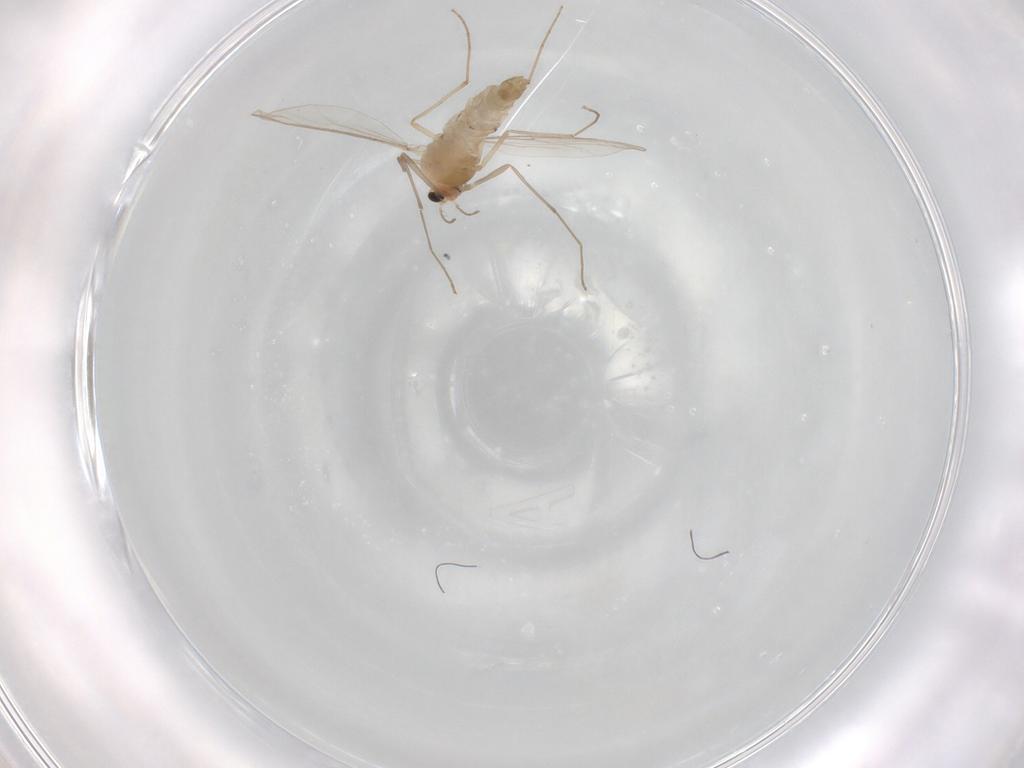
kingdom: Animalia
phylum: Arthropoda
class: Insecta
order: Diptera
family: Chironomidae
